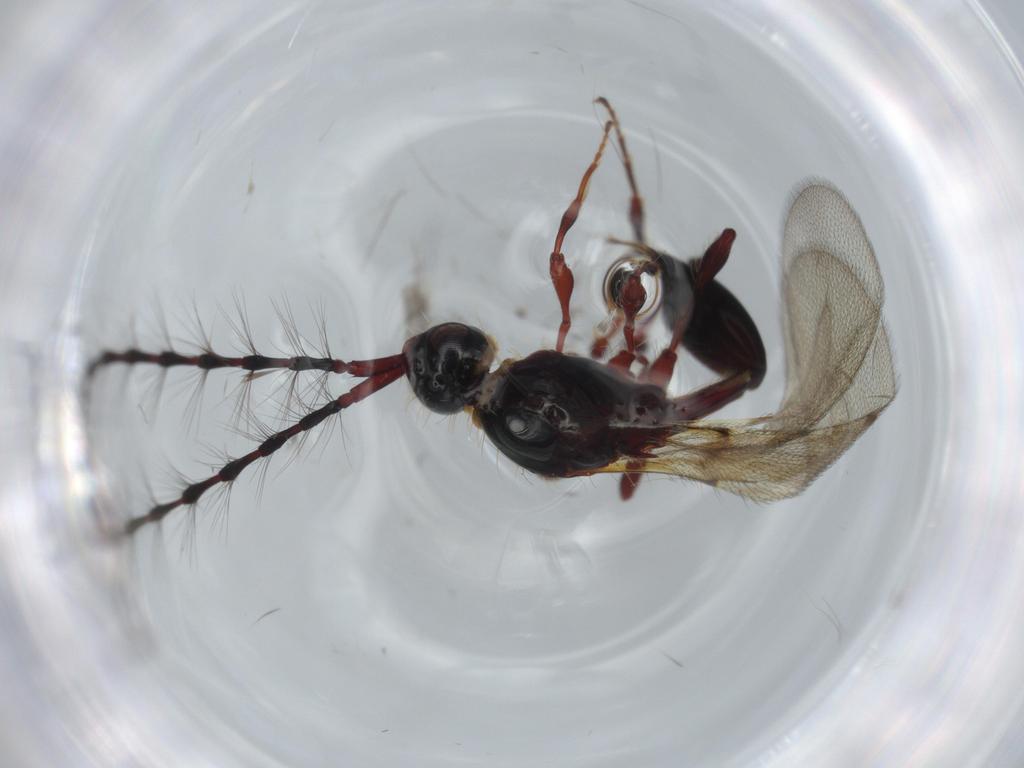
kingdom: Animalia
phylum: Arthropoda
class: Insecta
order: Hymenoptera
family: Diapriidae
